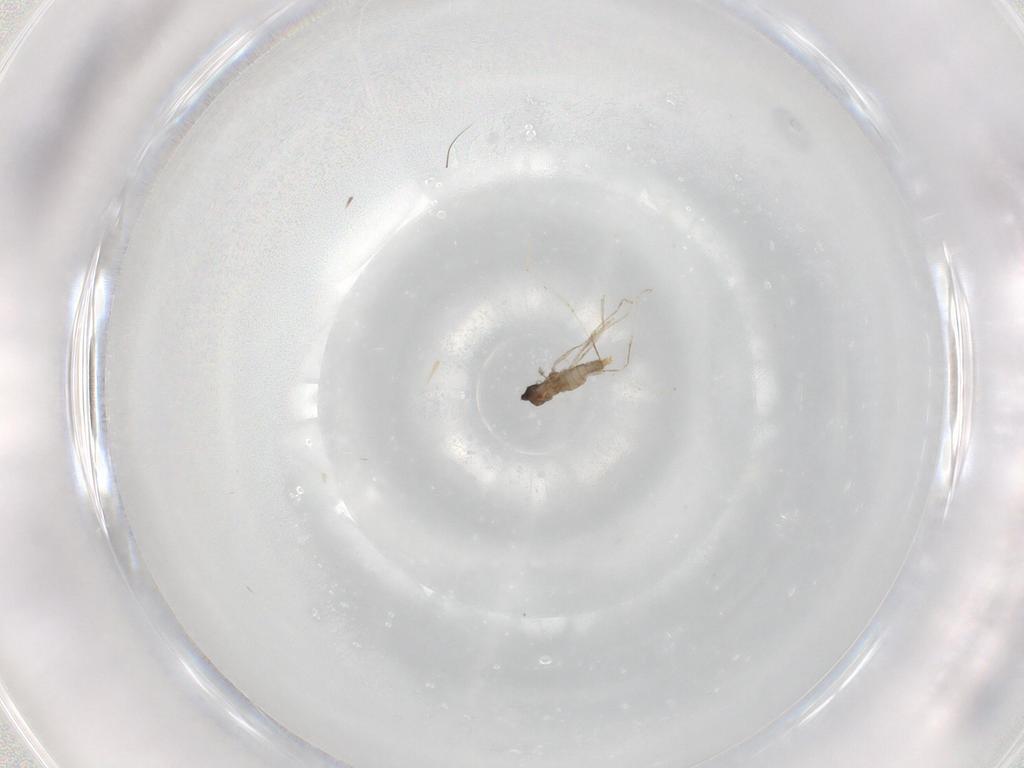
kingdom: Animalia
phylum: Arthropoda
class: Insecta
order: Diptera
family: Cecidomyiidae
